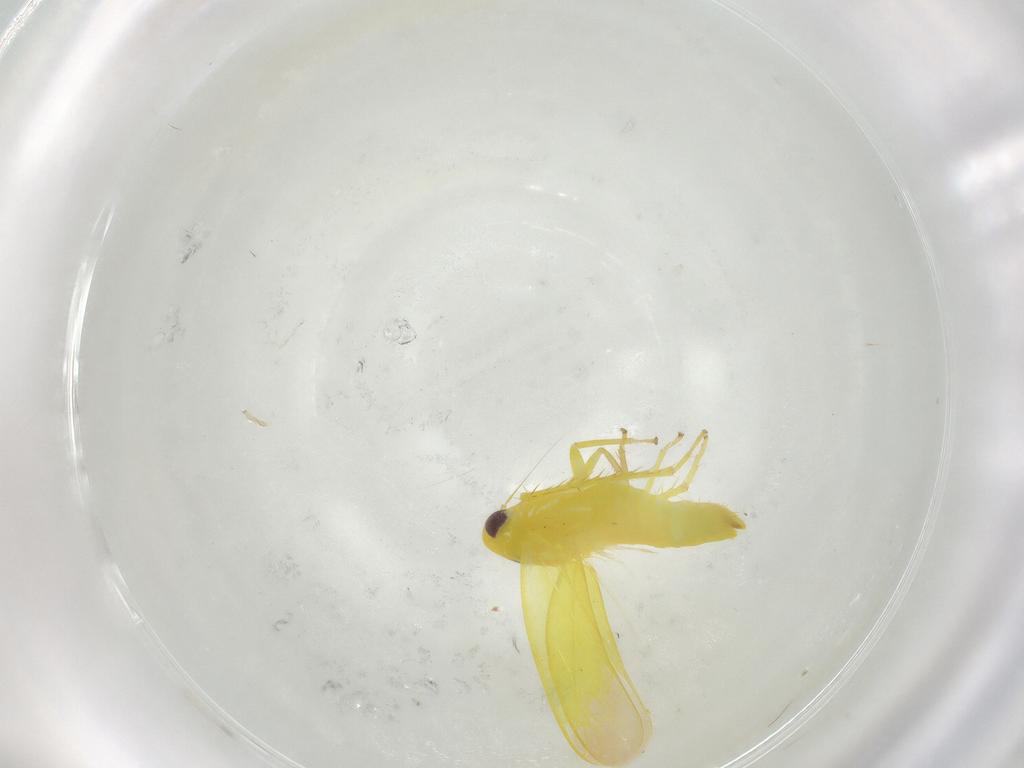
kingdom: Animalia
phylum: Arthropoda
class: Insecta
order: Hemiptera
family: Cicadellidae
